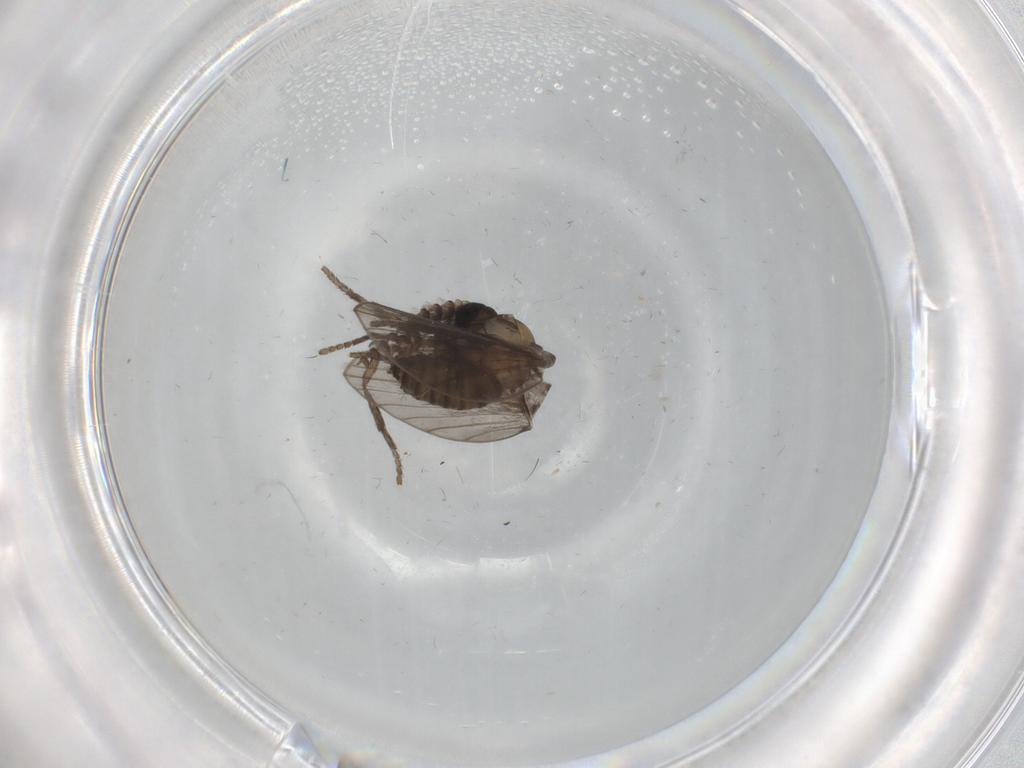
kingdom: Animalia
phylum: Arthropoda
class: Insecta
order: Diptera
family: Psychodidae
